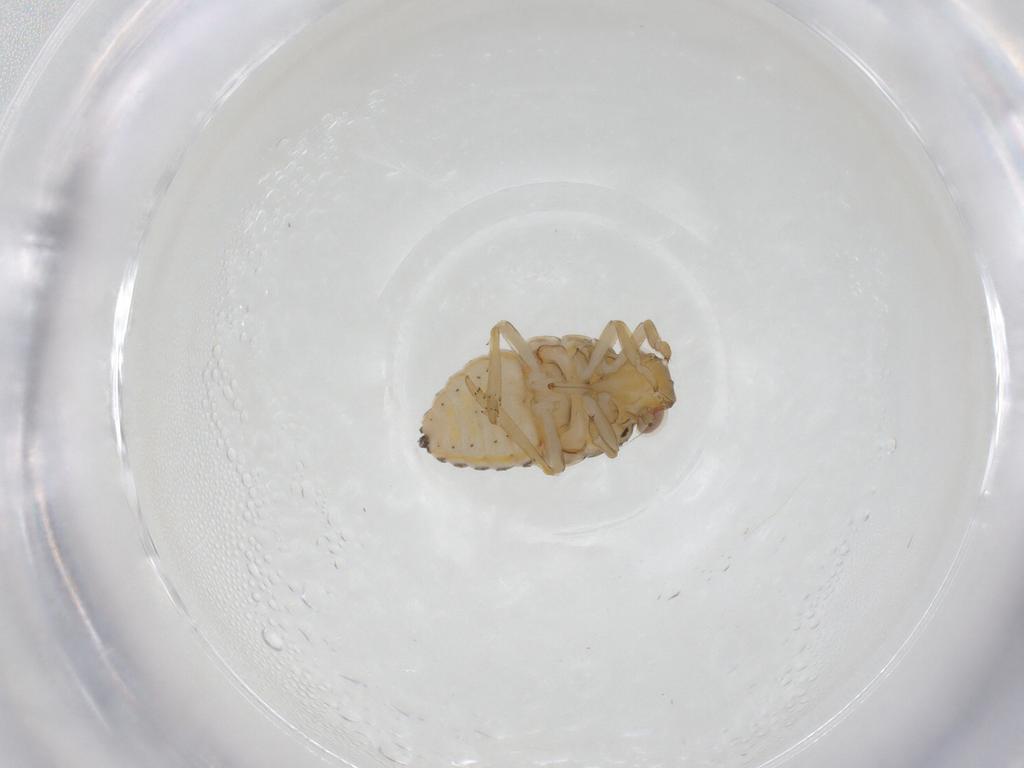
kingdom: Animalia
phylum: Arthropoda
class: Insecta
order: Hemiptera
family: Issidae
